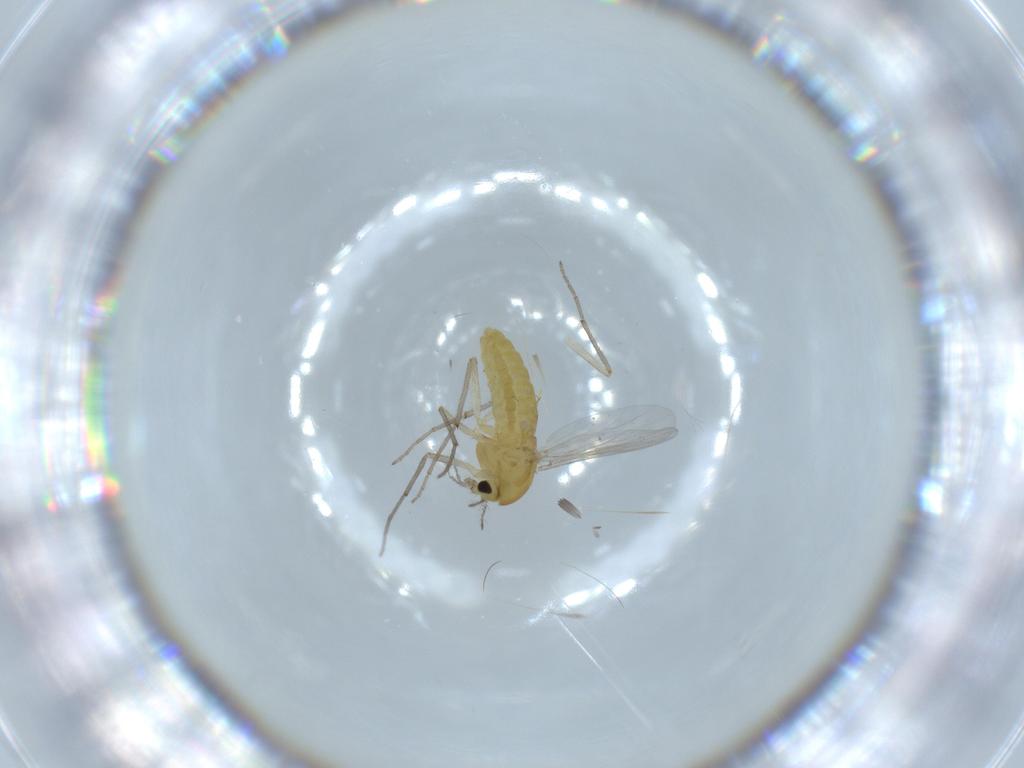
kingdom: Animalia
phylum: Arthropoda
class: Insecta
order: Diptera
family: Chironomidae
